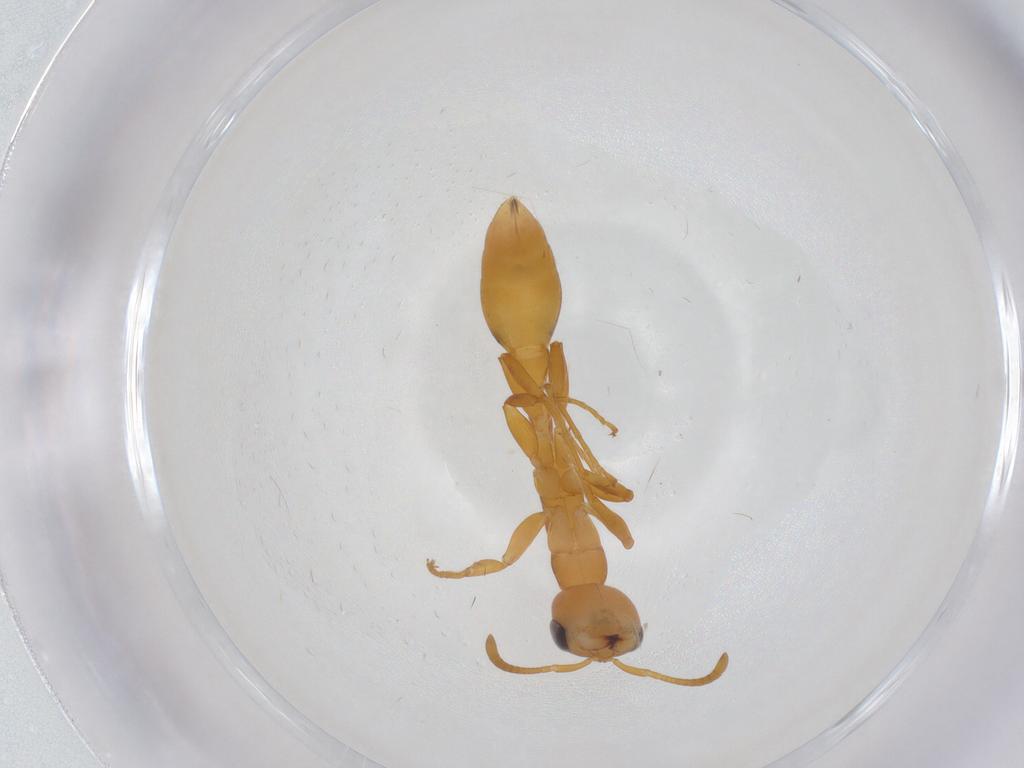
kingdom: Animalia
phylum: Arthropoda
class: Insecta
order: Hymenoptera
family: Formicidae
